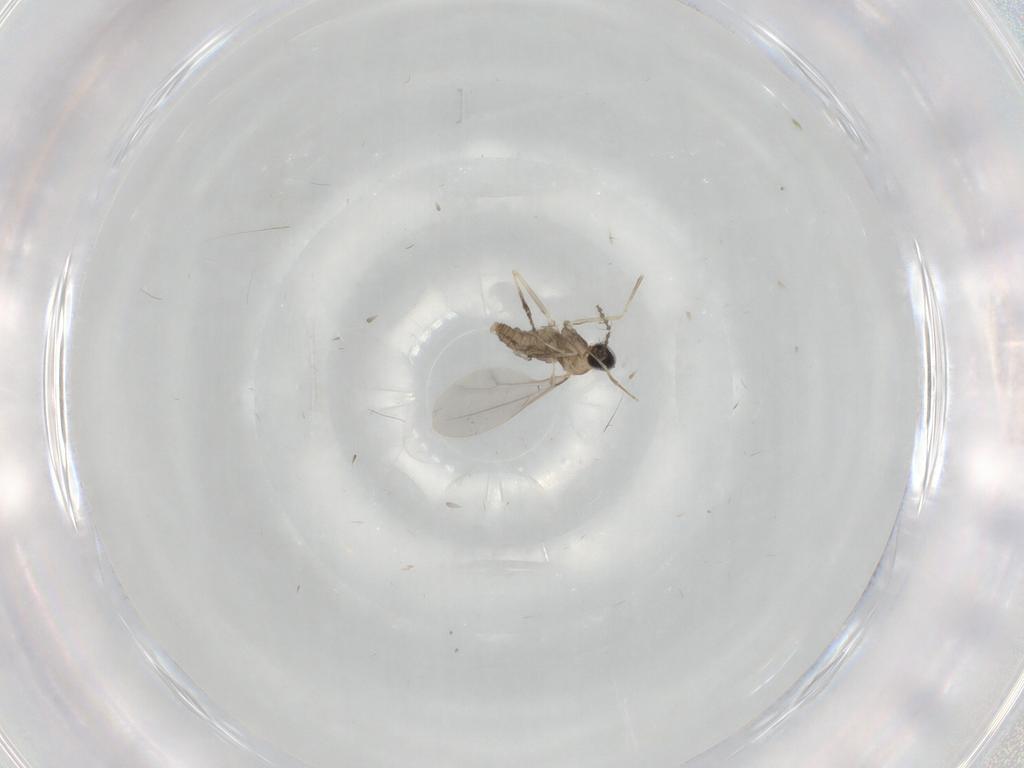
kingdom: Animalia
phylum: Arthropoda
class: Insecta
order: Diptera
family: Cecidomyiidae
